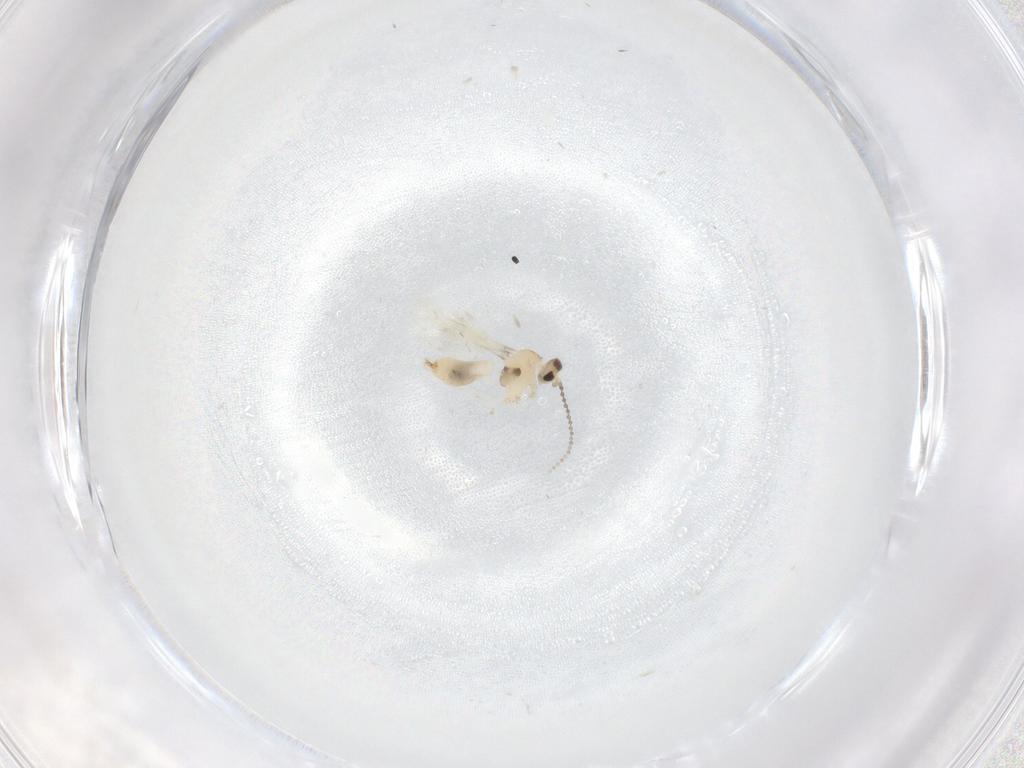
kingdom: Animalia
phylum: Arthropoda
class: Insecta
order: Diptera
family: Cecidomyiidae
